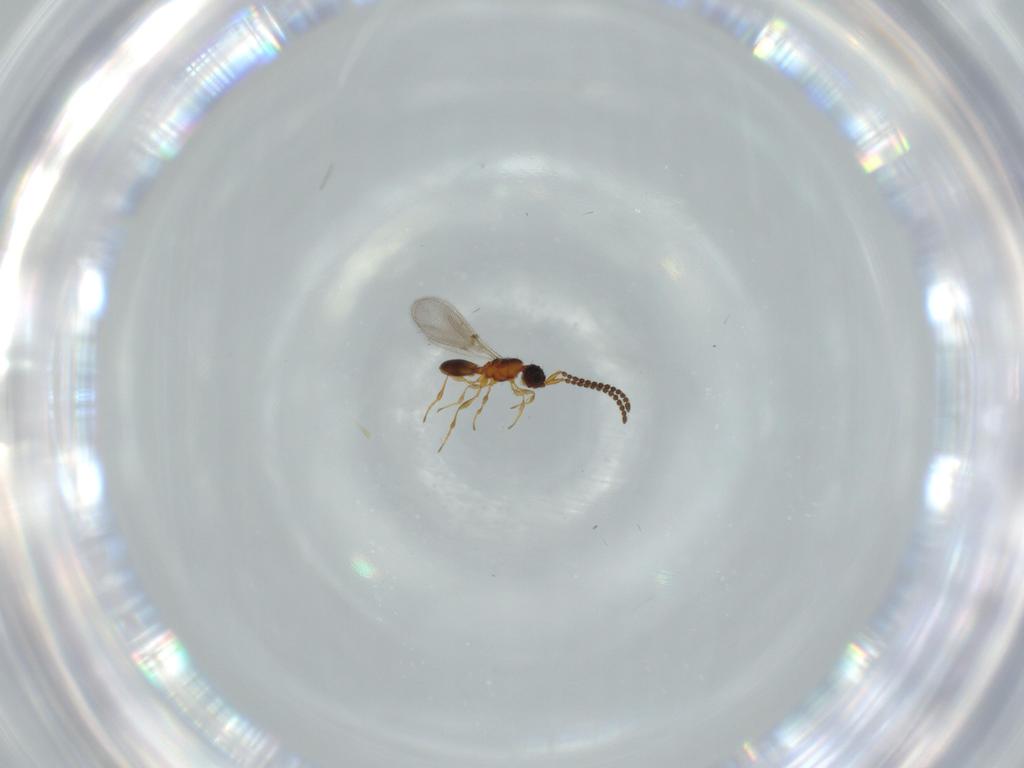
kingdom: Animalia
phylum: Arthropoda
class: Insecta
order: Hymenoptera
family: Diapriidae
